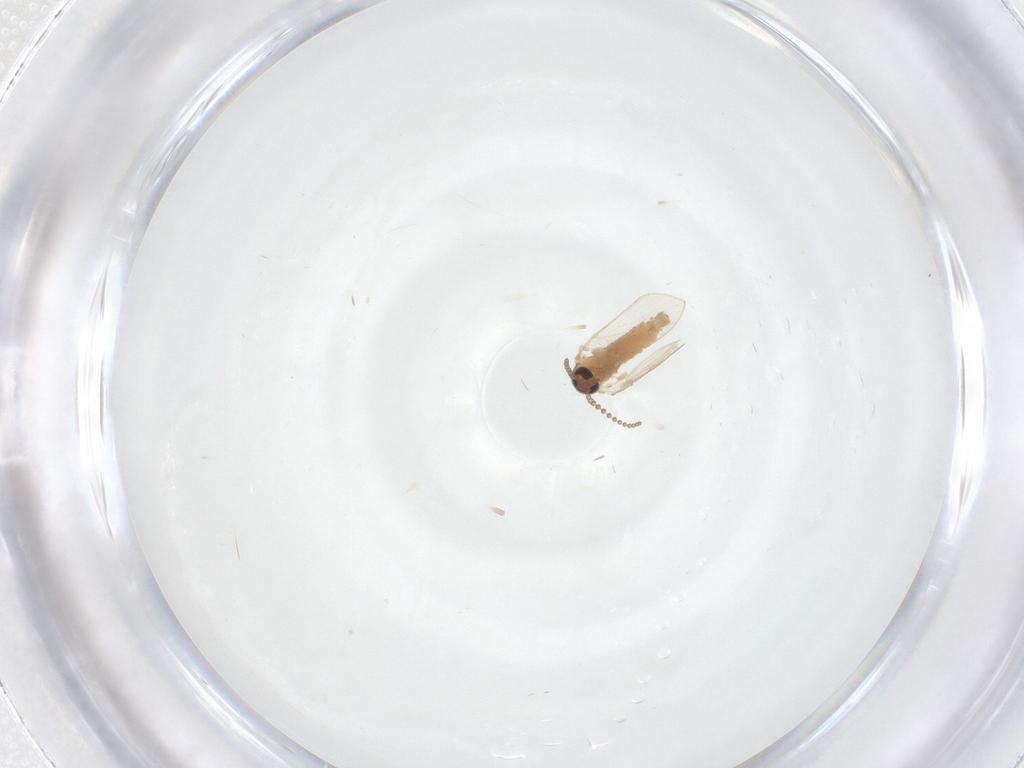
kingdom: Animalia
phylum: Arthropoda
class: Insecta
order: Diptera
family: Psychodidae
